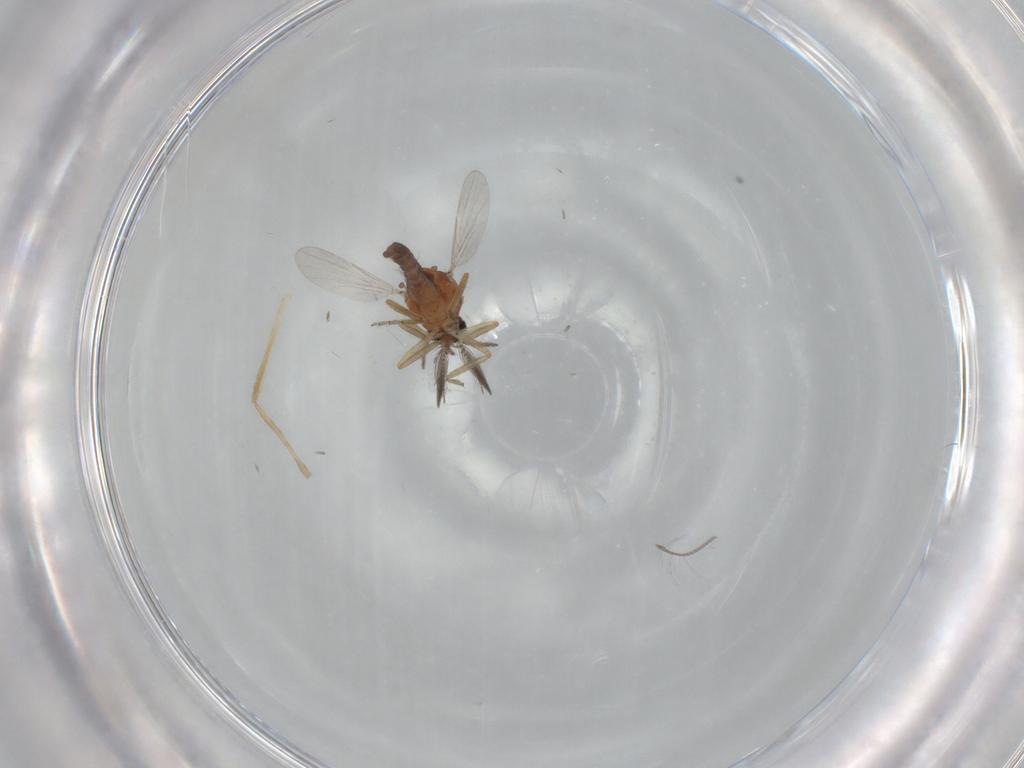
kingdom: Animalia
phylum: Arthropoda
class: Insecta
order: Diptera
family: Ceratopogonidae
